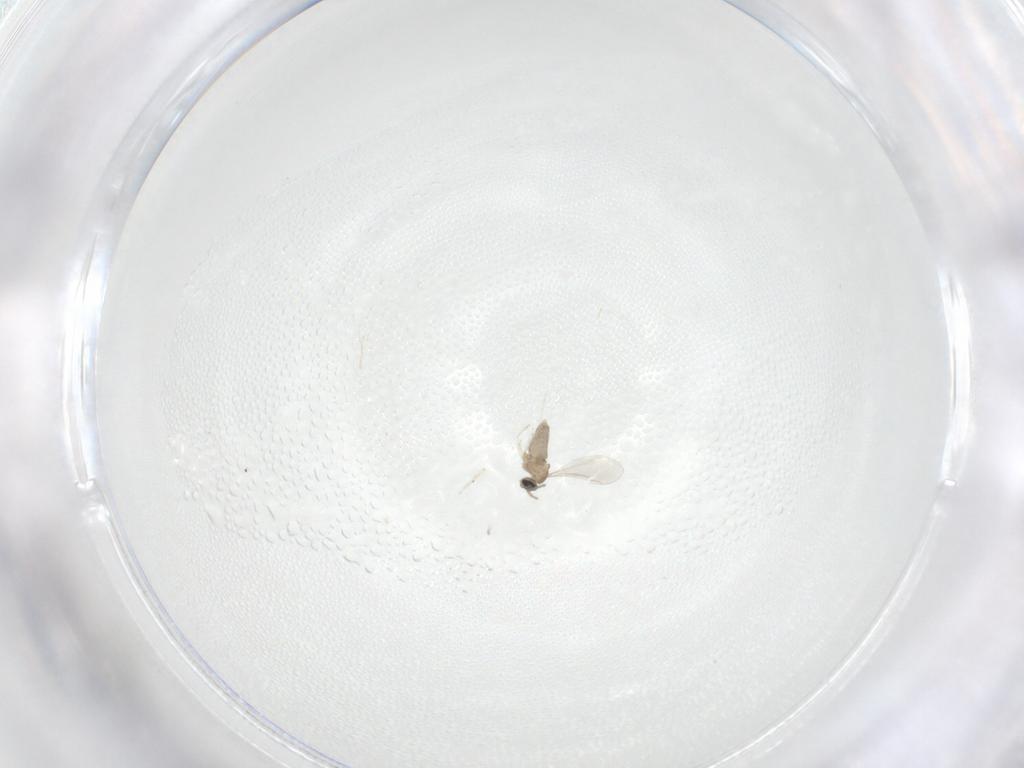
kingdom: Animalia
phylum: Arthropoda
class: Insecta
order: Diptera
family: Cecidomyiidae
